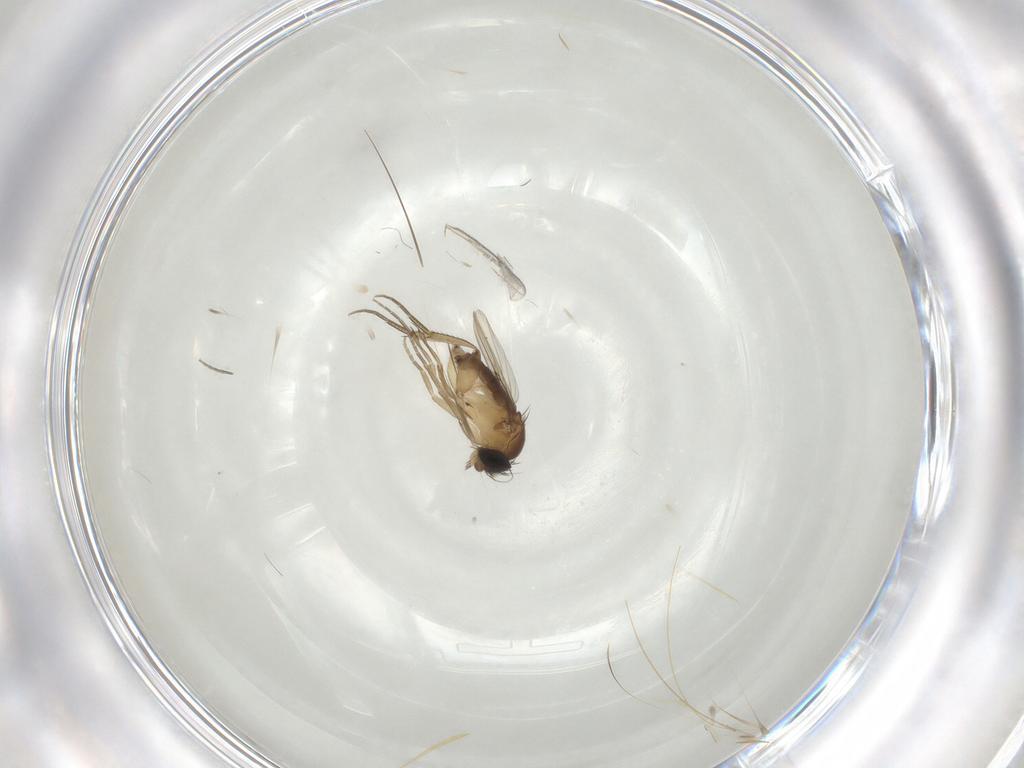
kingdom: Animalia
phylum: Arthropoda
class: Insecta
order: Diptera
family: Phoridae
